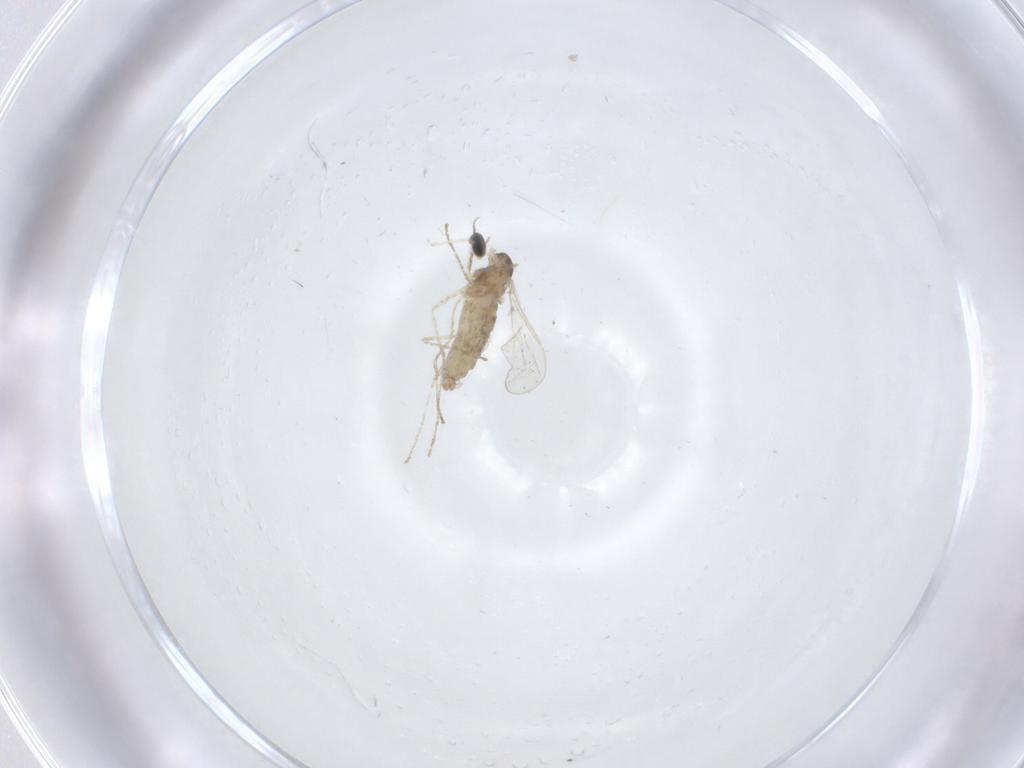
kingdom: Animalia
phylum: Arthropoda
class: Insecta
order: Diptera
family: Cecidomyiidae
